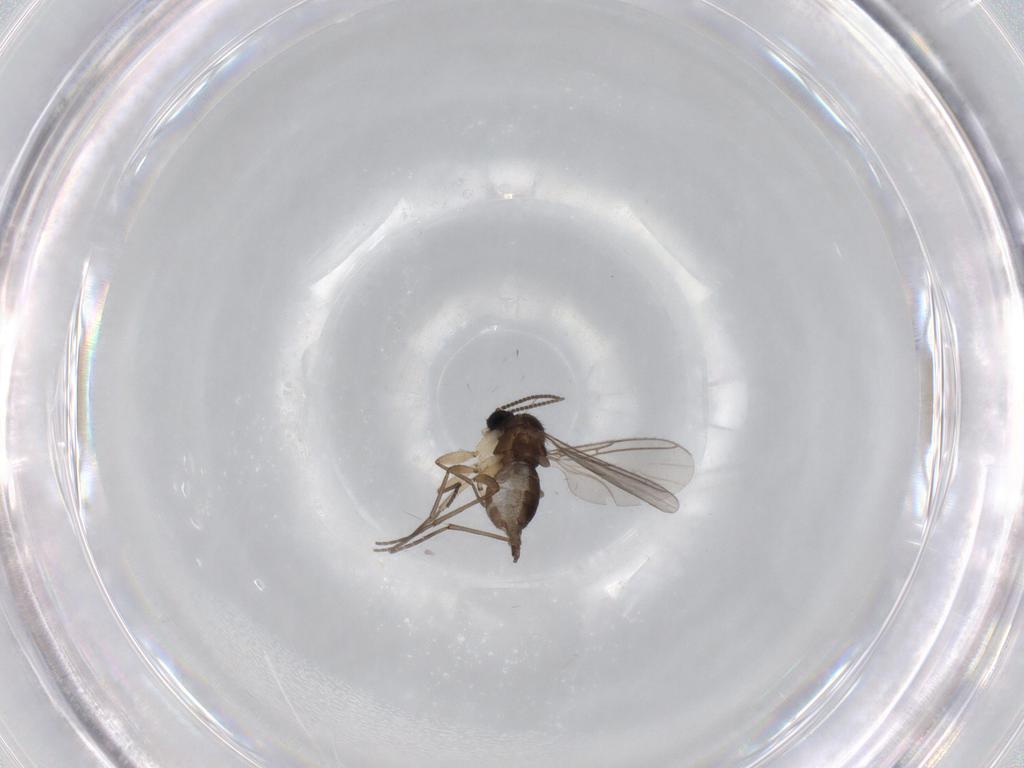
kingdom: Animalia
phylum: Arthropoda
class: Insecta
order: Diptera
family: Sciaridae
